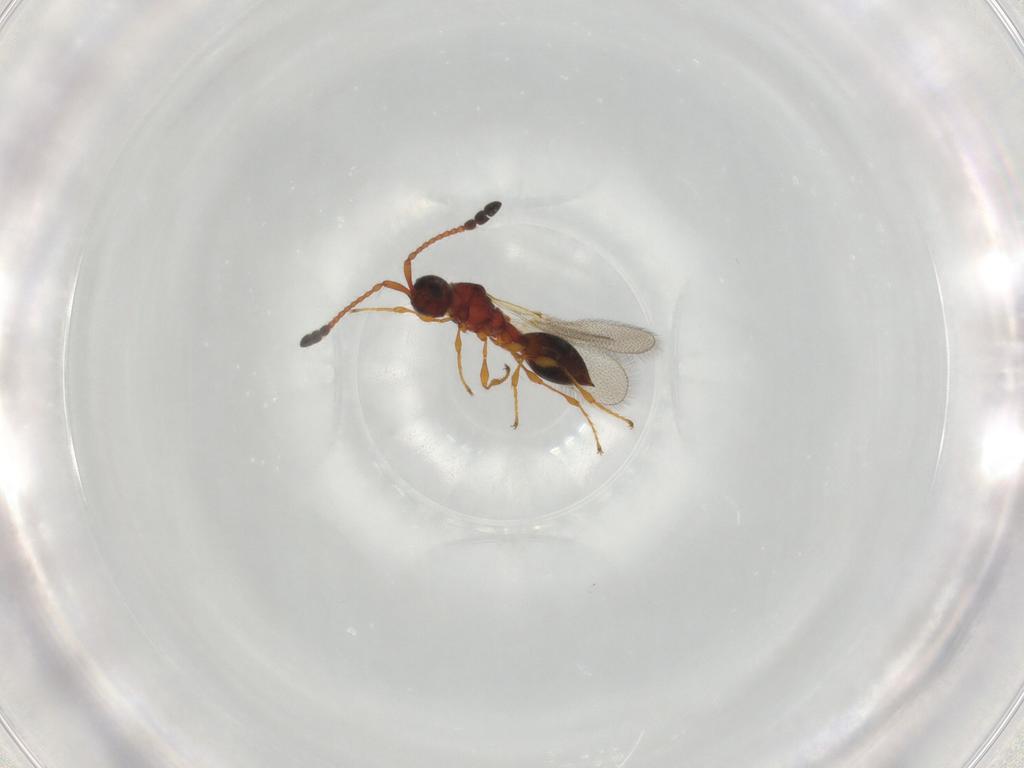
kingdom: Animalia
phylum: Arthropoda
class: Insecta
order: Hymenoptera
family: Diapriidae
